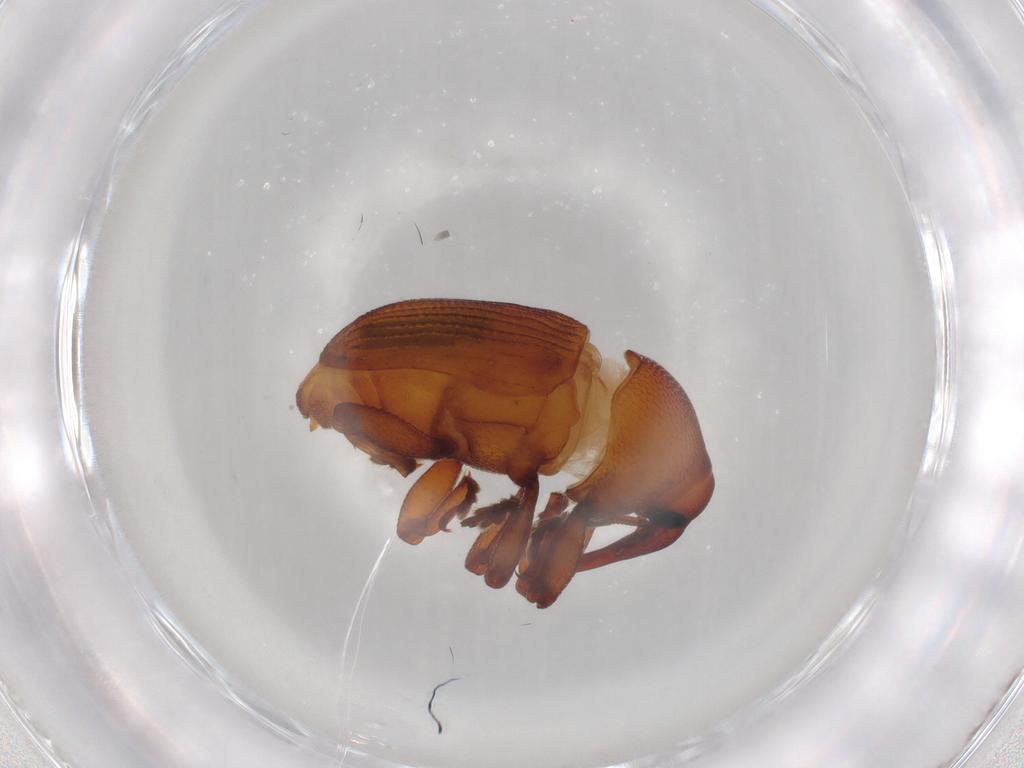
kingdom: Animalia
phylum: Arthropoda
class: Insecta
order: Coleoptera
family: Curculionidae
